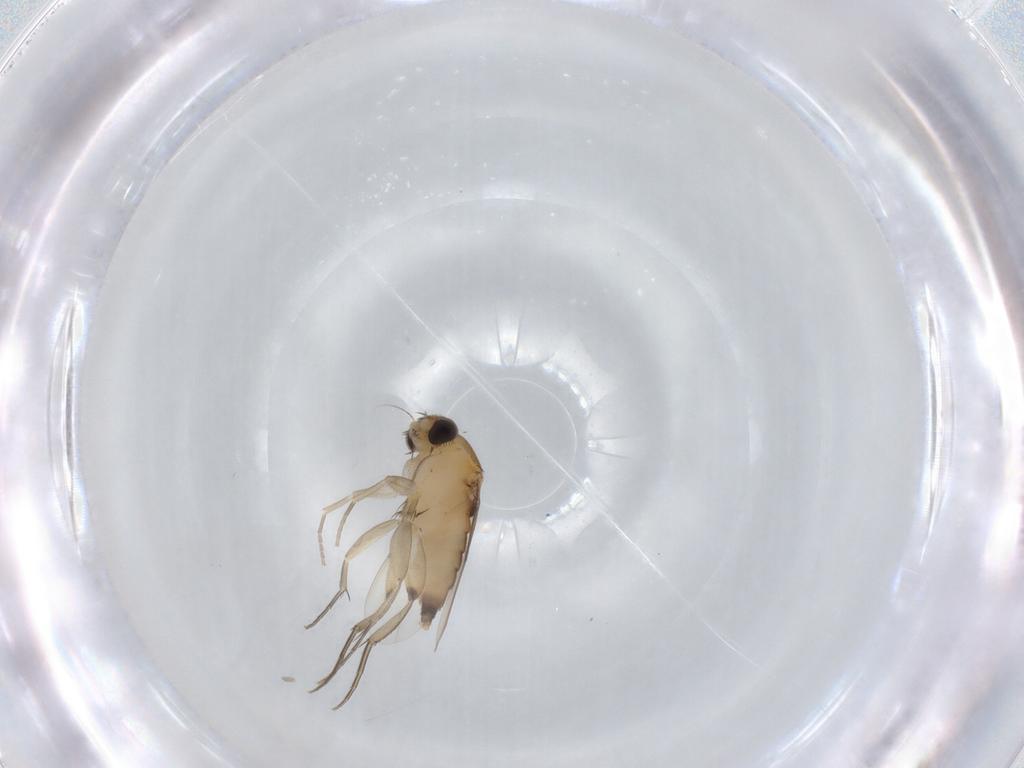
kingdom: Animalia
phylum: Arthropoda
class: Insecta
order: Diptera
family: Phoridae
